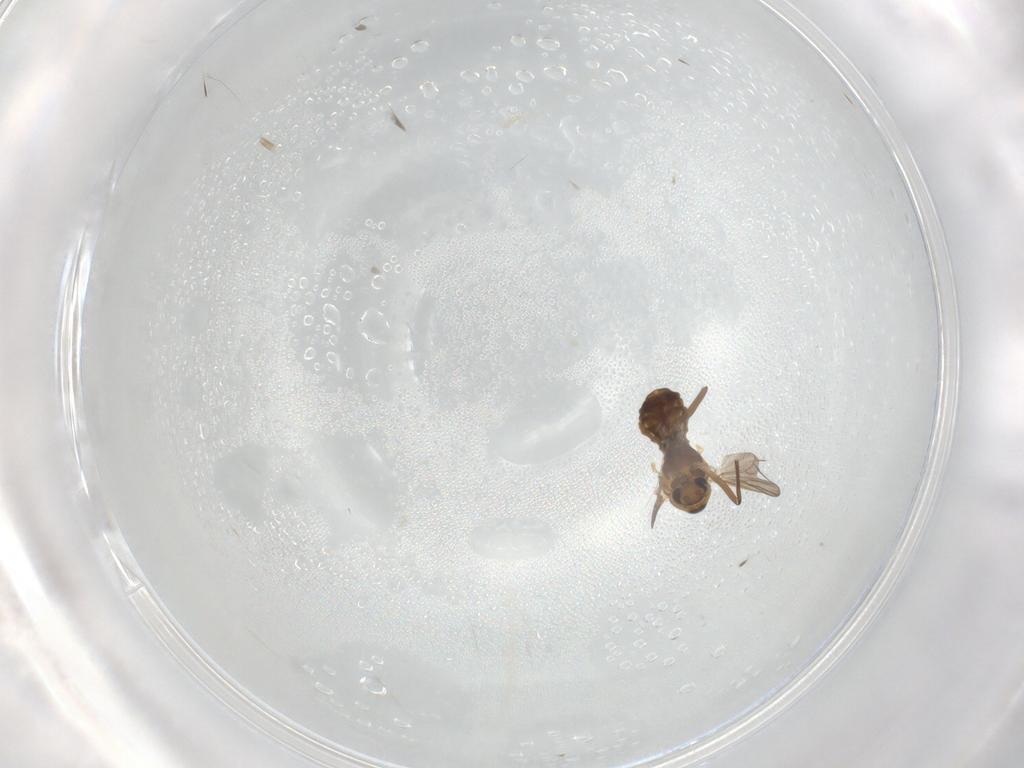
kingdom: Animalia
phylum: Arthropoda
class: Insecta
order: Diptera
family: Chironomidae
